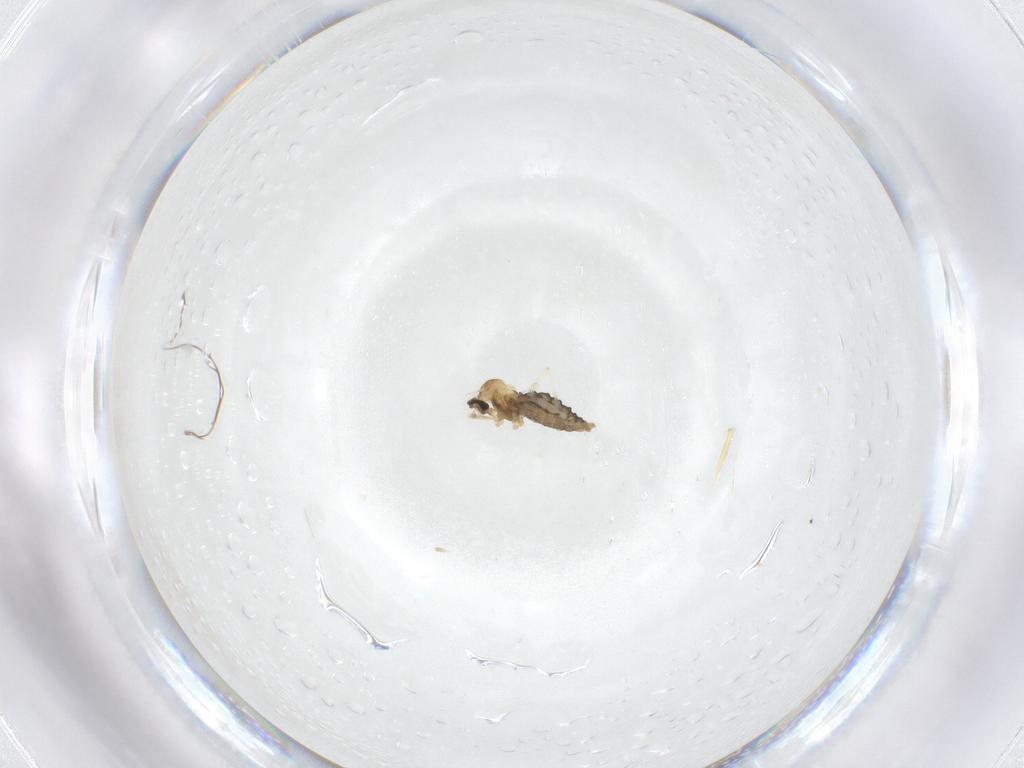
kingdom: Animalia
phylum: Arthropoda
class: Insecta
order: Diptera
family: Cecidomyiidae
